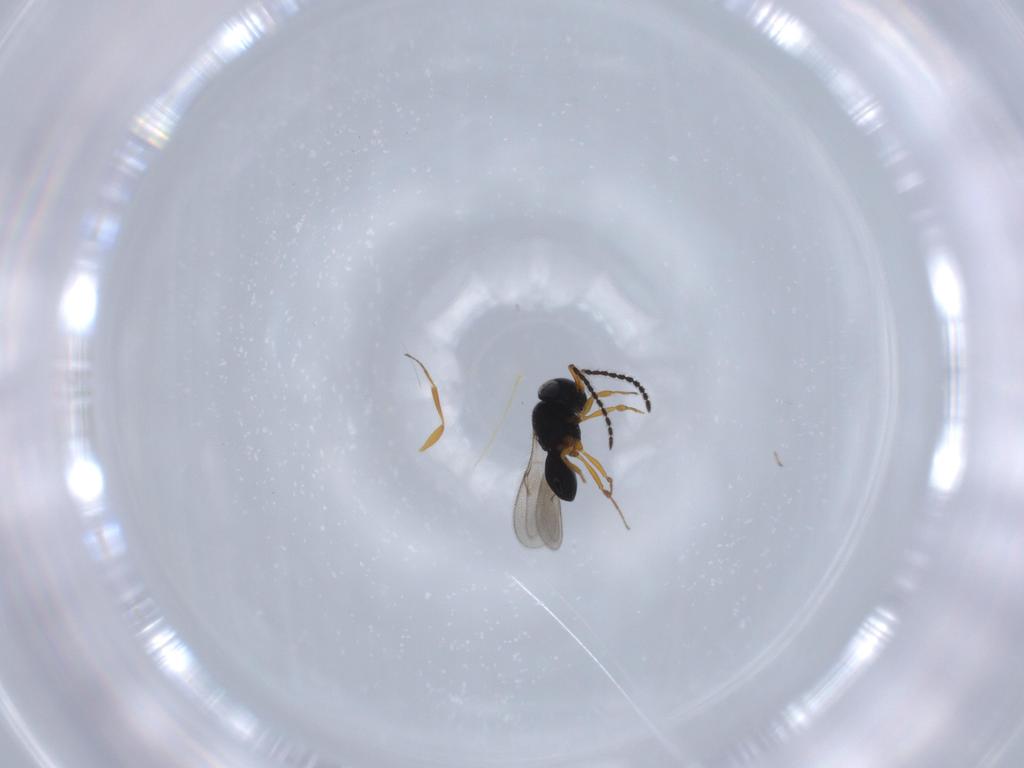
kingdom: Animalia
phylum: Arthropoda
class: Insecta
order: Hymenoptera
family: Scelionidae
